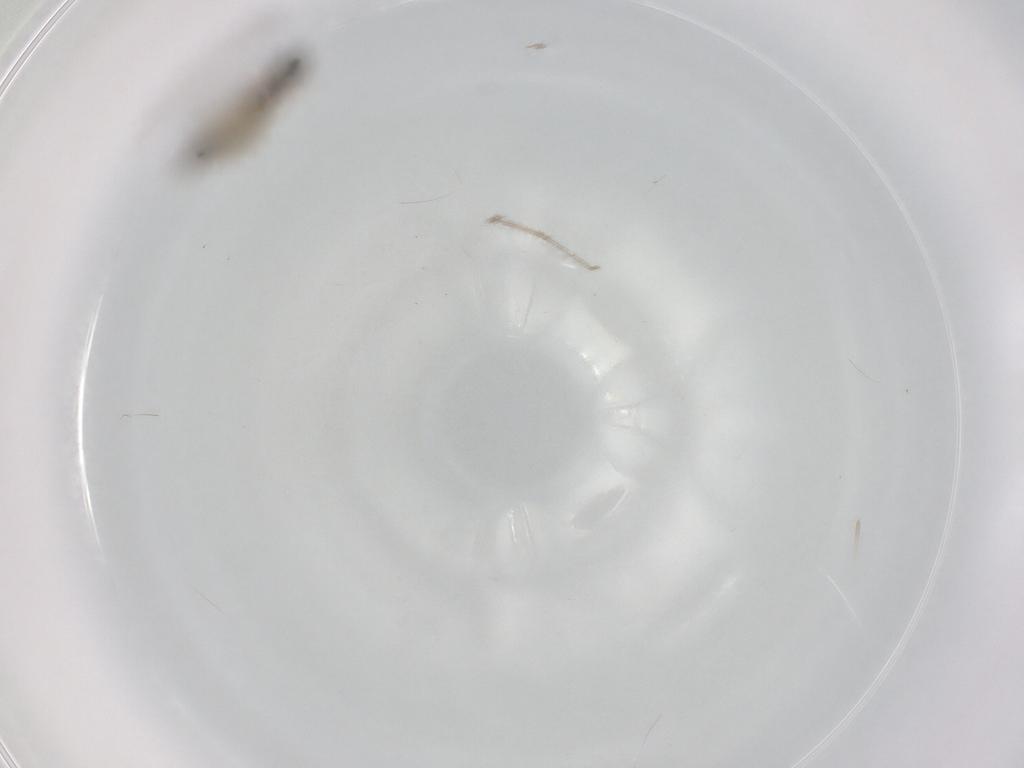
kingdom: Animalia
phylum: Arthropoda
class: Insecta
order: Diptera
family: Cecidomyiidae
